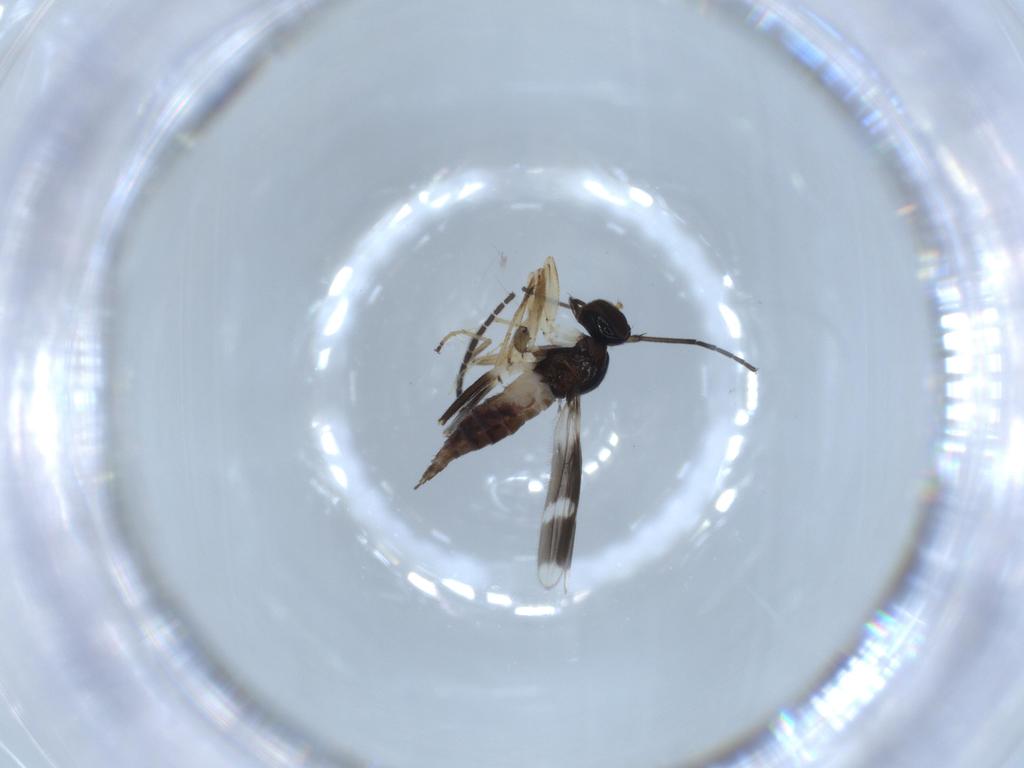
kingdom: Animalia
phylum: Arthropoda
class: Insecta
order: Diptera
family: Hybotidae
